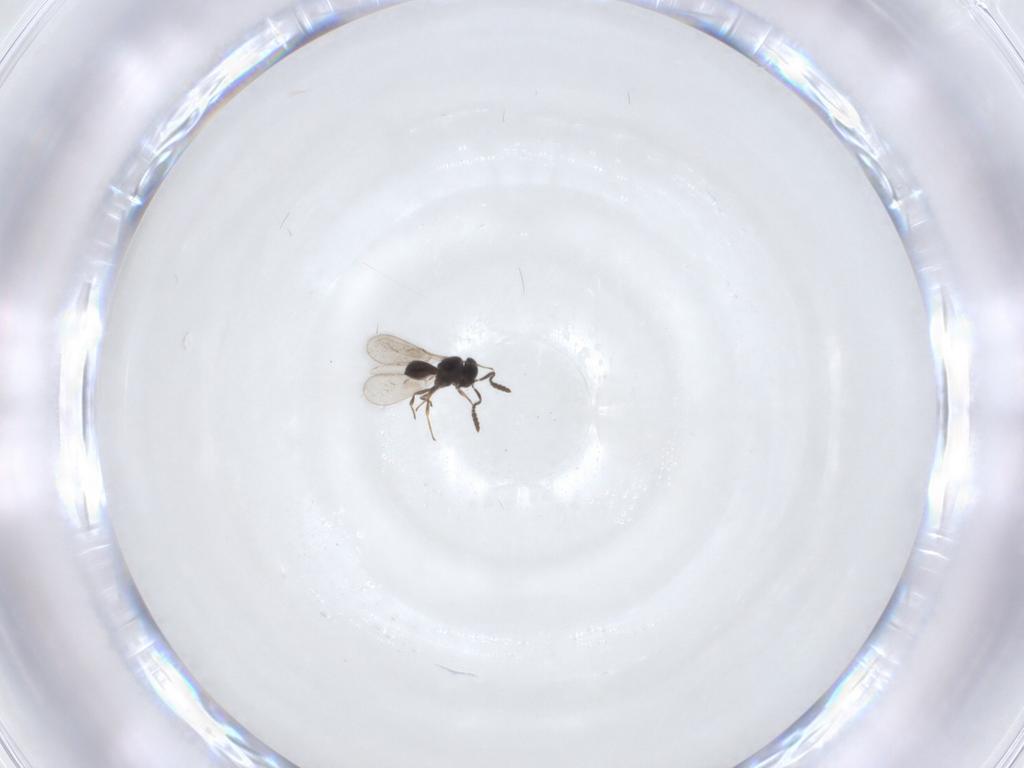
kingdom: Animalia
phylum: Arthropoda
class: Insecta
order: Hymenoptera
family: Scelionidae
